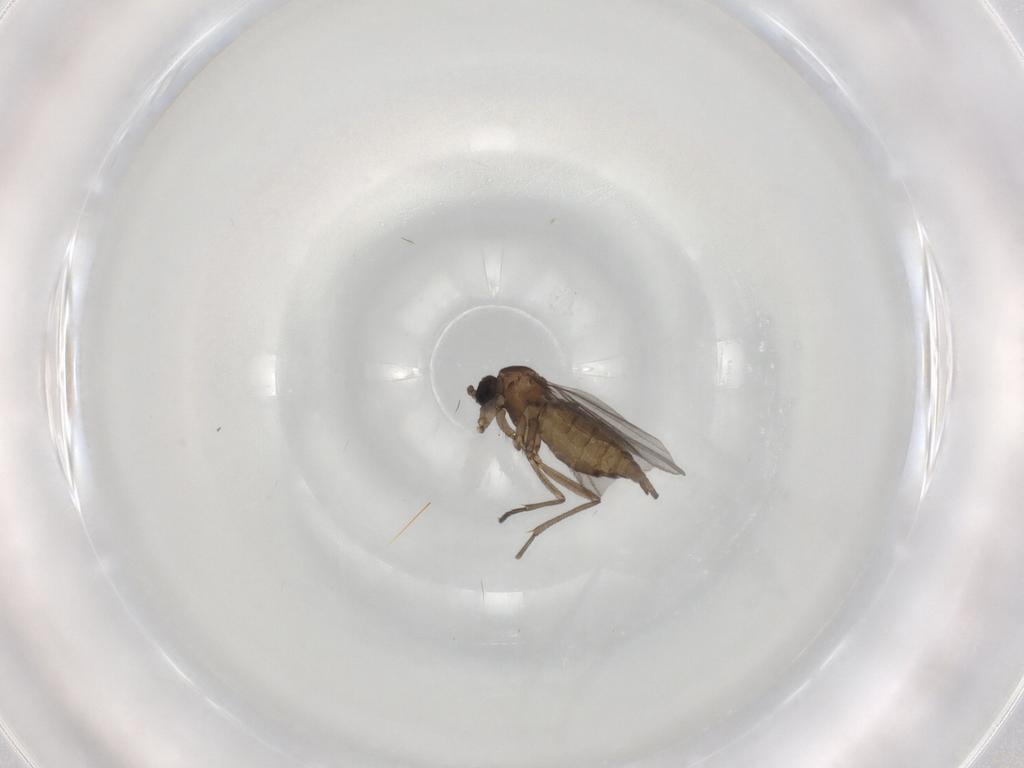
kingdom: Animalia
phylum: Arthropoda
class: Insecta
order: Diptera
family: Sciaridae
